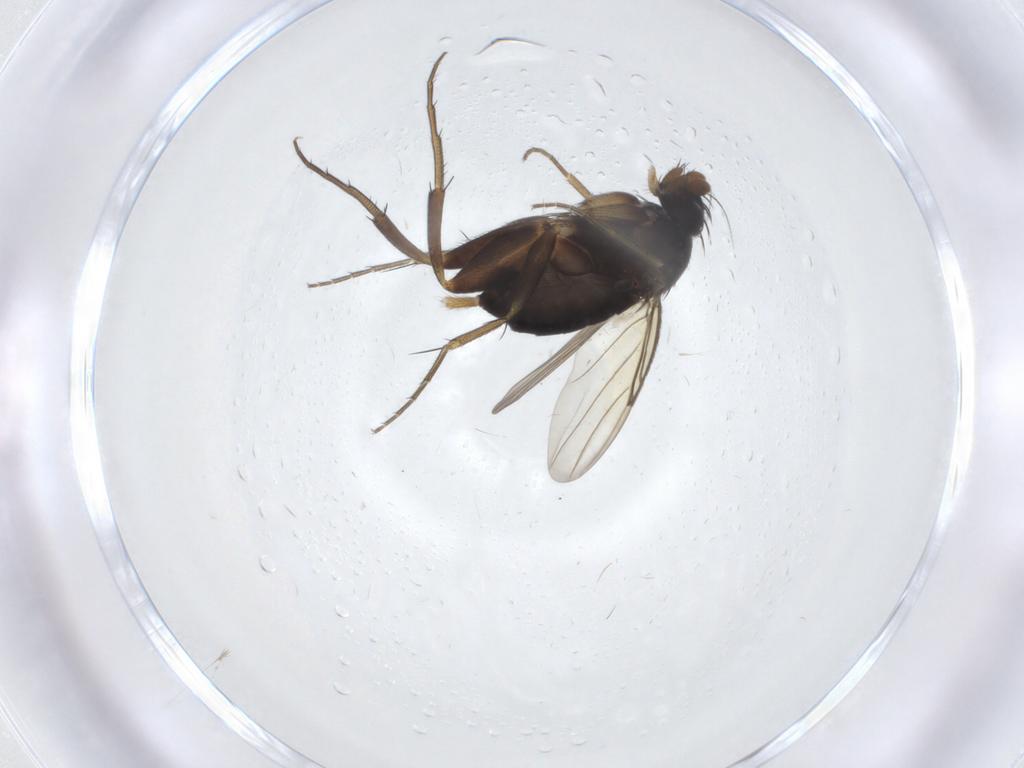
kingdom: Animalia
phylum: Arthropoda
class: Insecta
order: Diptera
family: Phoridae
